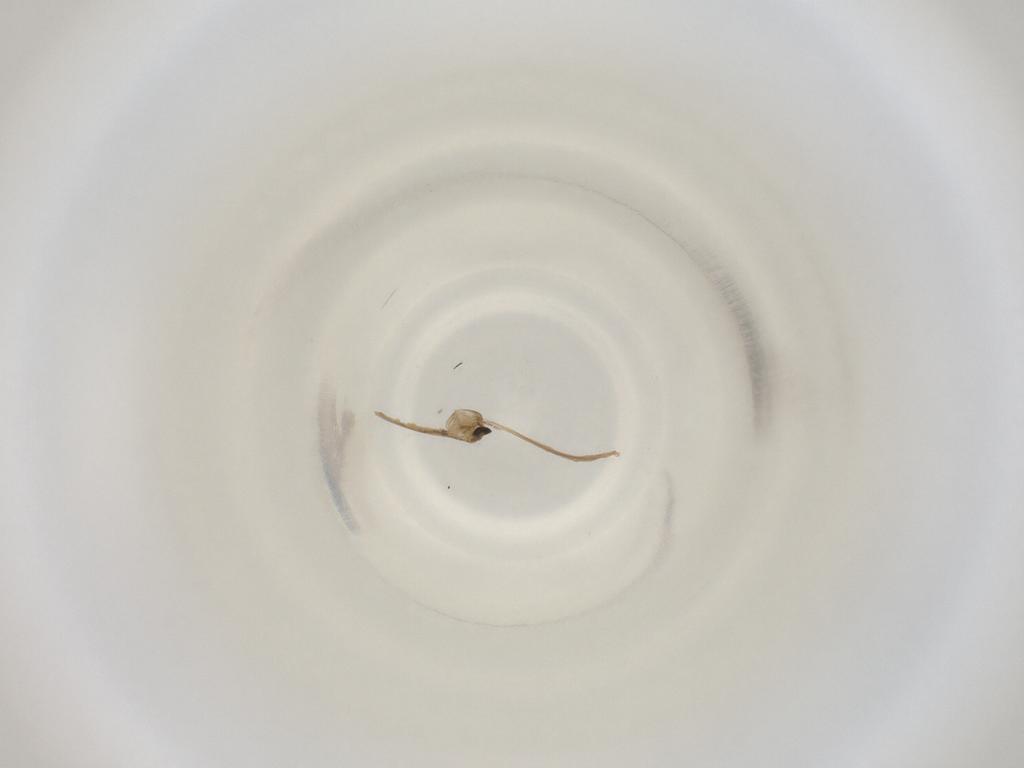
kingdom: Animalia
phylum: Arthropoda
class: Insecta
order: Diptera
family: Cecidomyiidae
